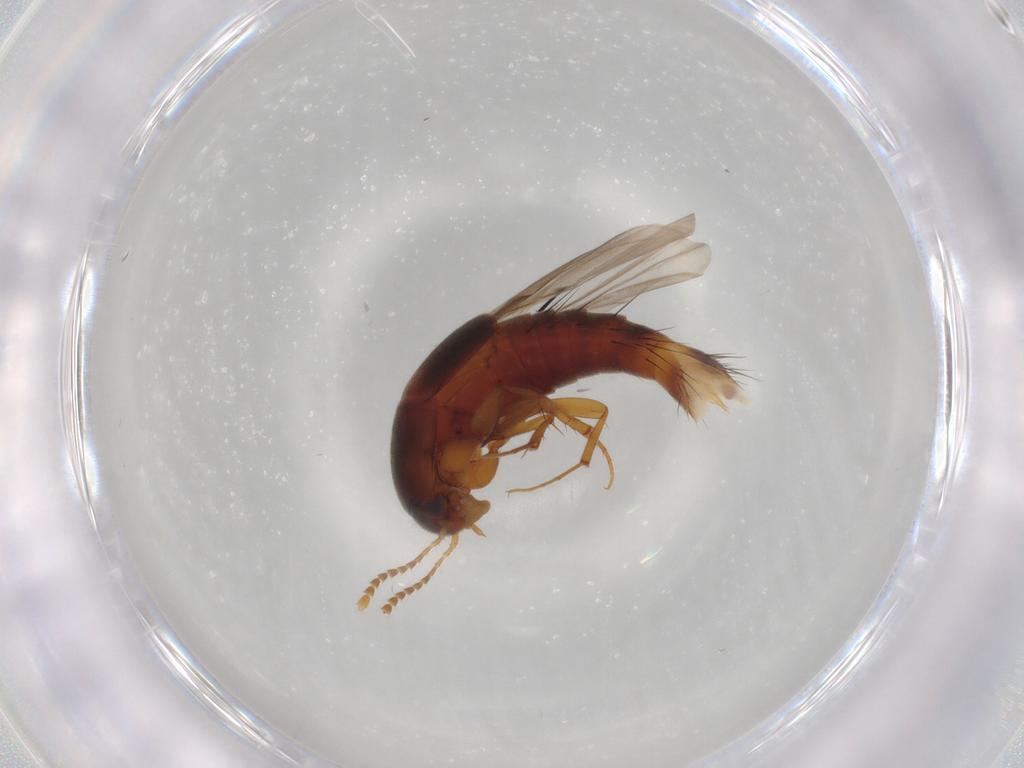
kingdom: Animalia
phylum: Arthropoda
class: Insecta
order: Coleoptera
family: Staphylinidae
